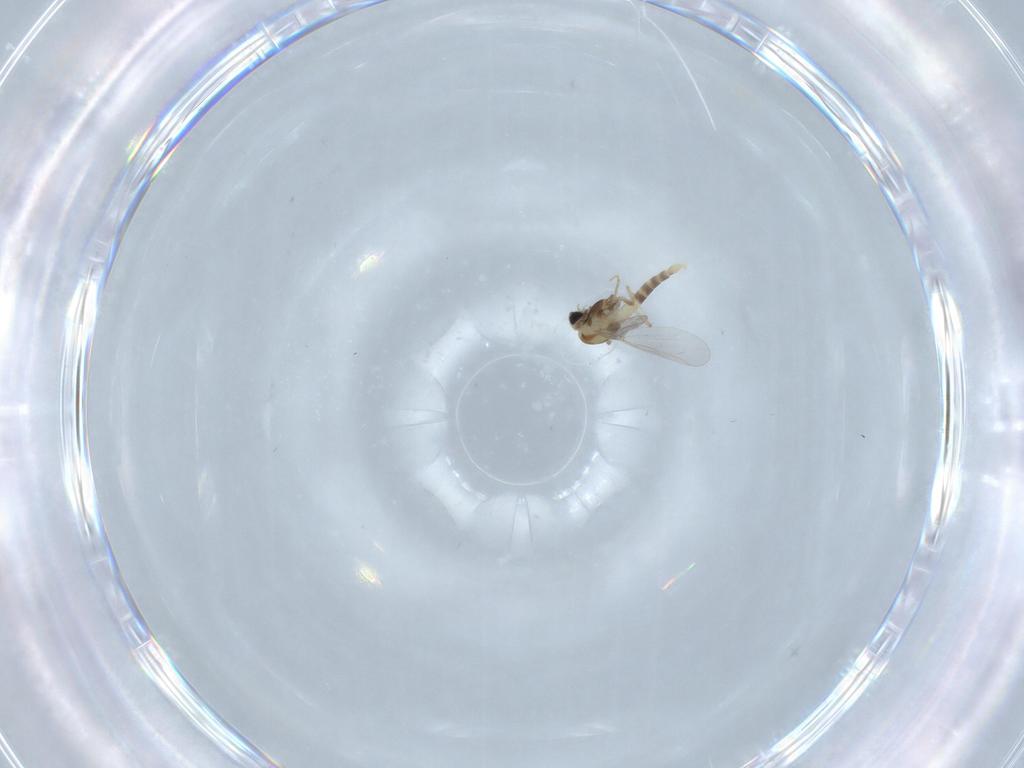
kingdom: Animalia
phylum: Arthropoda
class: Insecta
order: Diptera
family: Chironomidae
